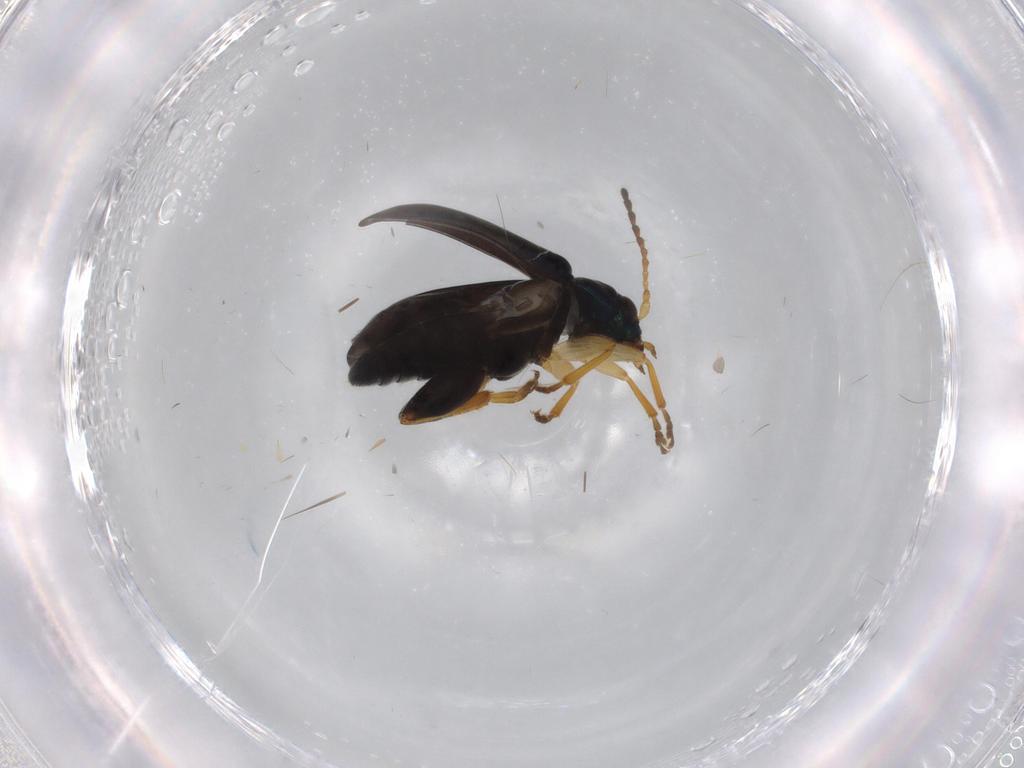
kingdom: Animalia
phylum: Arthropoda
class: Insecta
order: Coleoptera
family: Chrysomelidae
